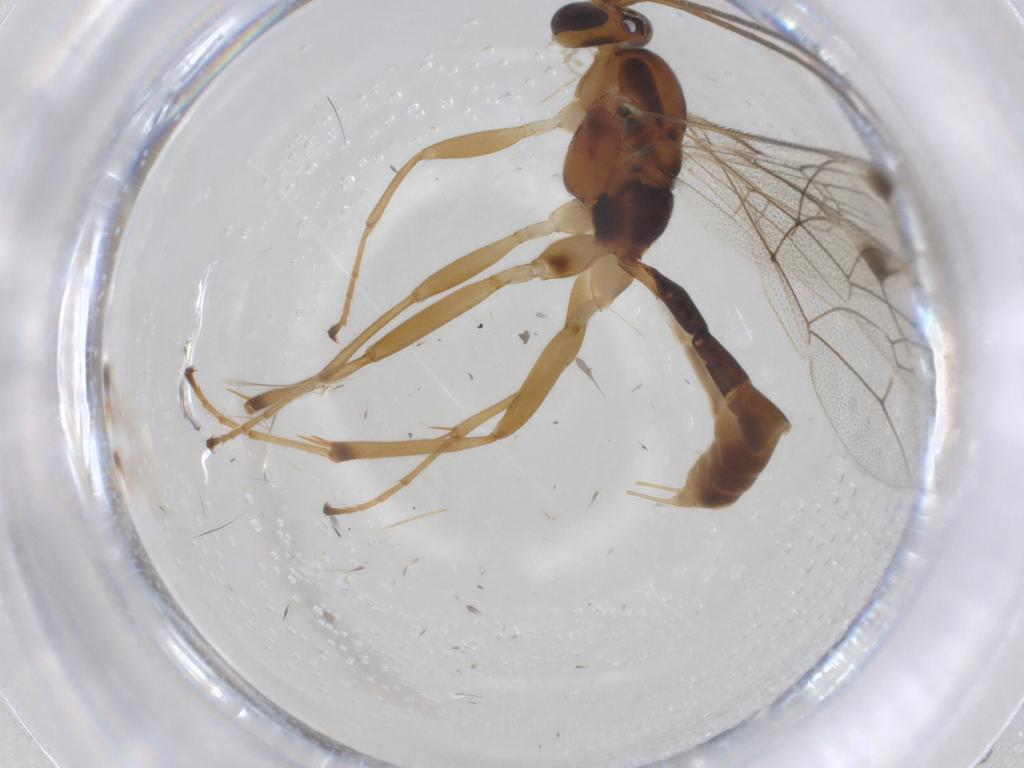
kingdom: Animalia
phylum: Arthropoda
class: Insecta
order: Hymenoptera
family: Ichneumonidae
